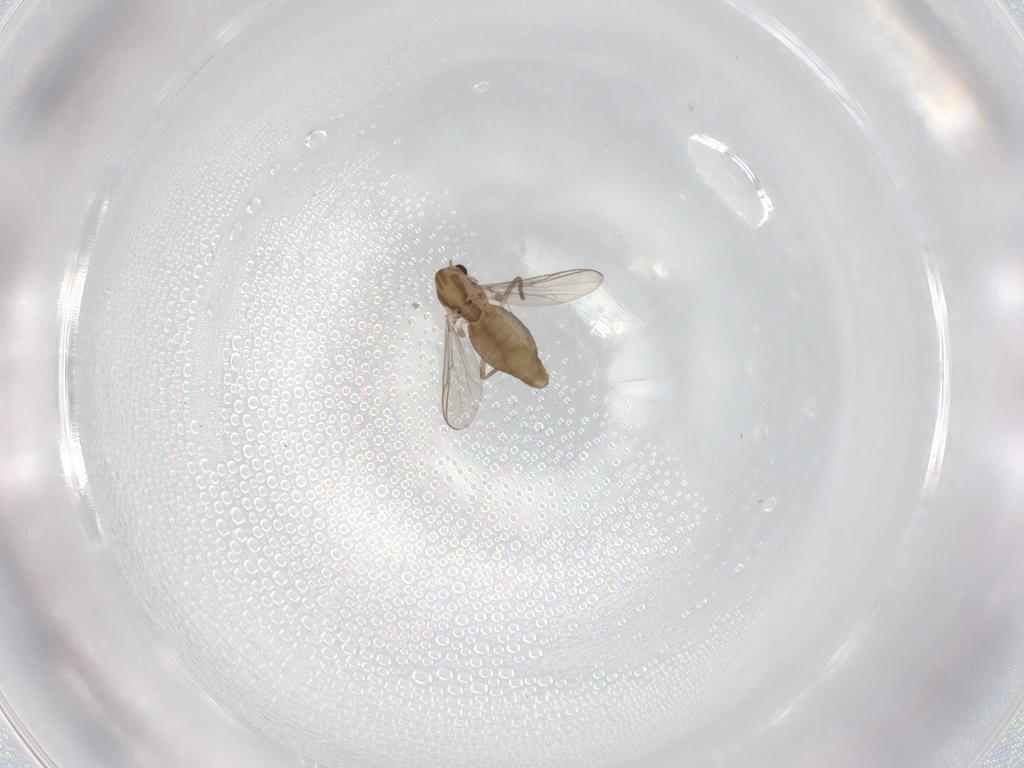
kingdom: Animalia
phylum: Arthropoda
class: Insecta
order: Diptera
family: Chironomidae
